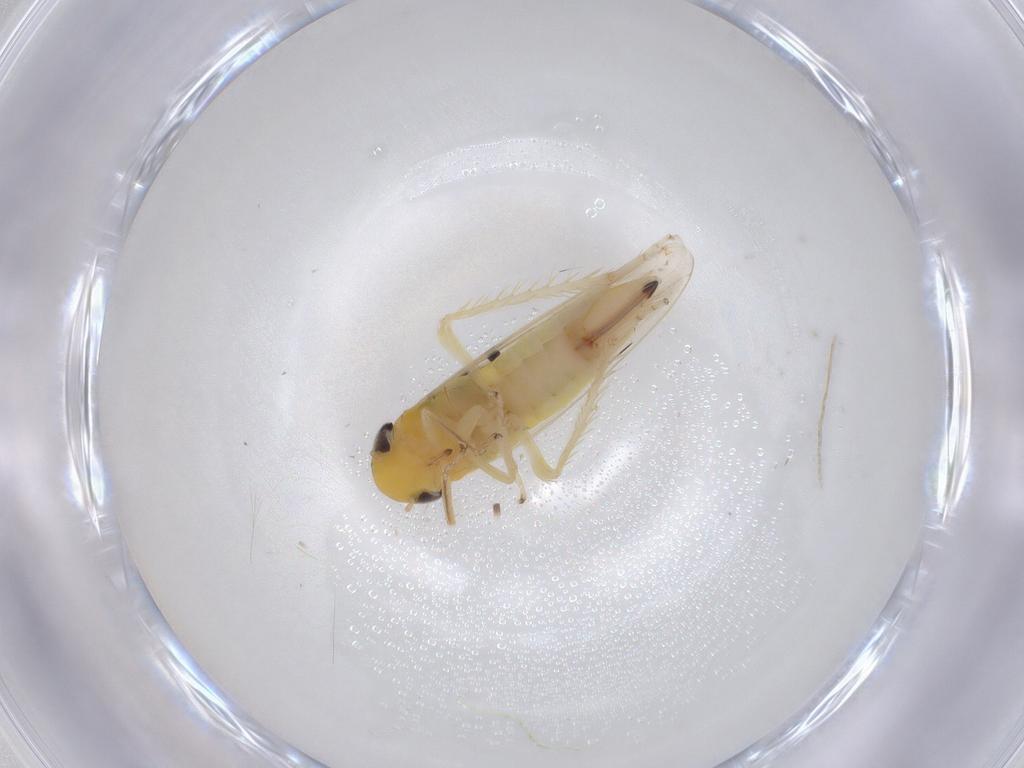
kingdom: Animalia
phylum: Arthropoda
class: Insecta
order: Hemiptera
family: Cicadellidae
